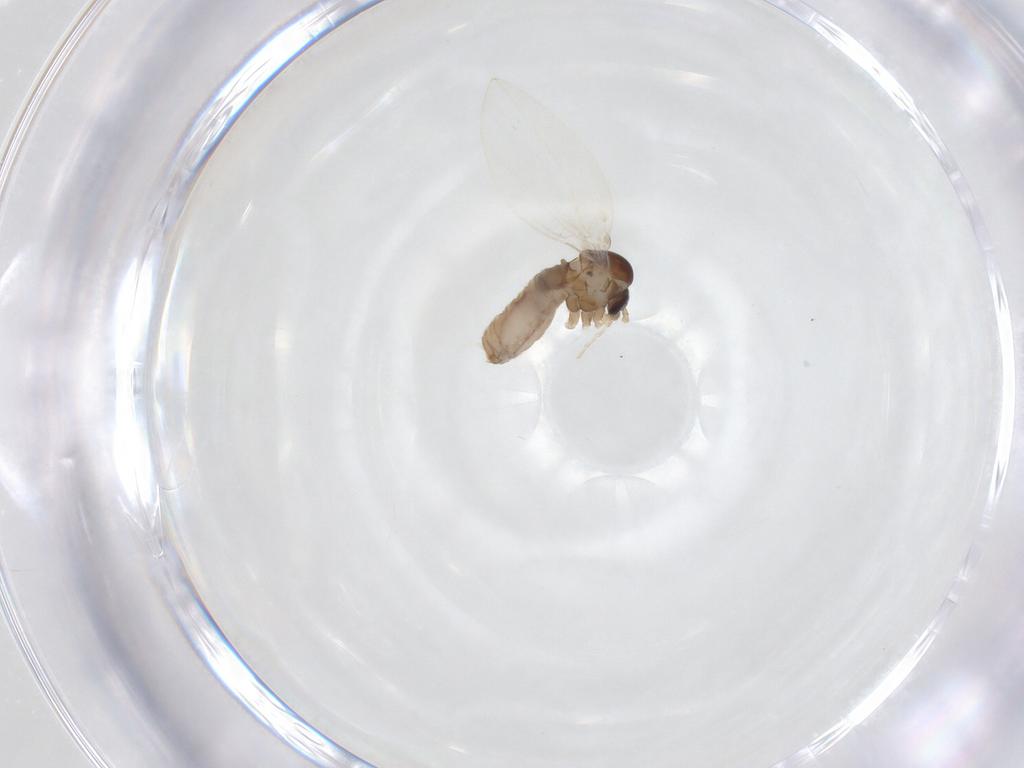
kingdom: Animalia
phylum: Arthropoda
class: Insecta
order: Diptera
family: Psychodidae
